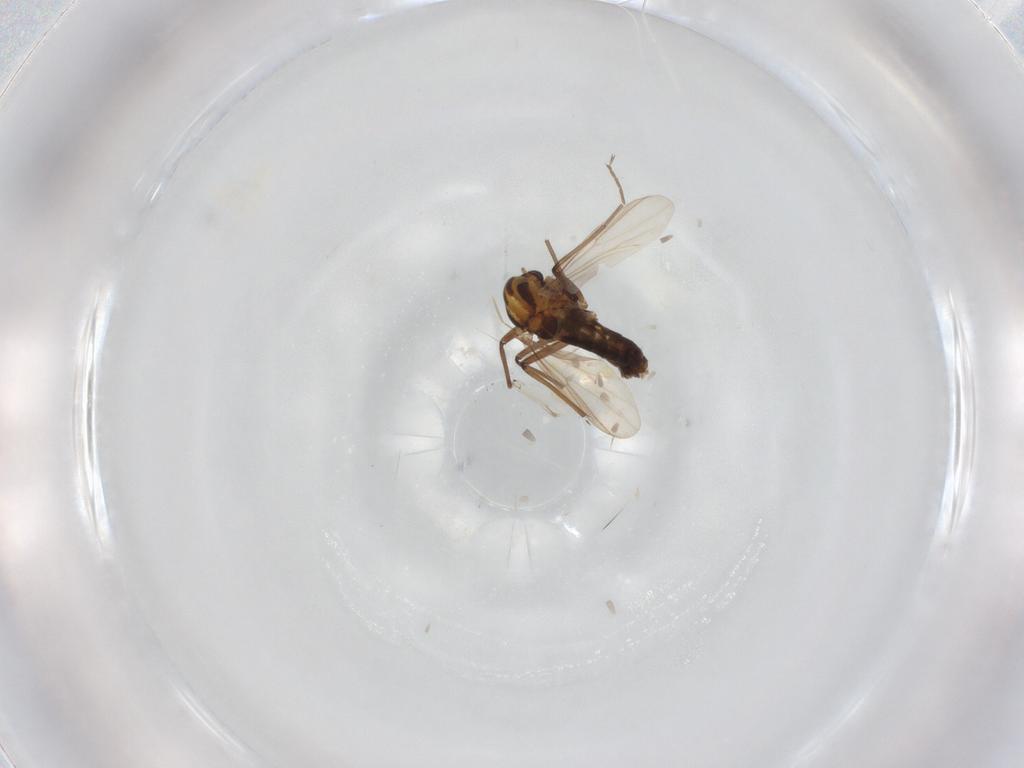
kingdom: Animalia
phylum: Arthropoda
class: Insecta
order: Diptera
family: Chironomidae
